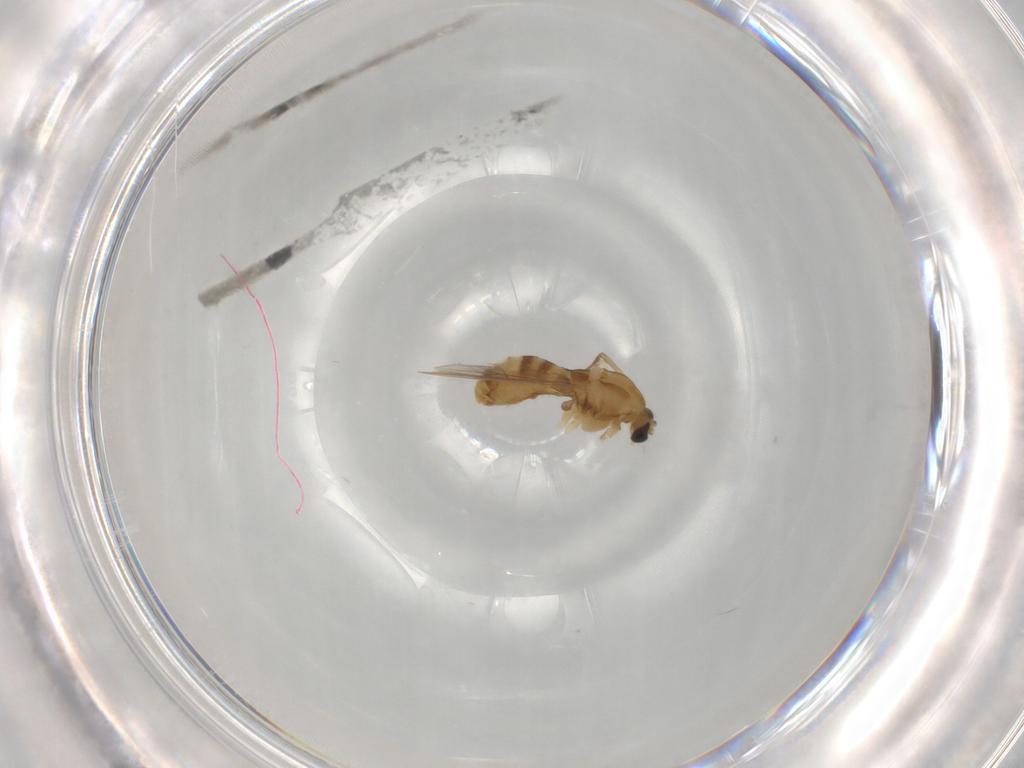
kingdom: Animalia
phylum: Arthropoda
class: Insecta
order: Diptera
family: Chironomidae
